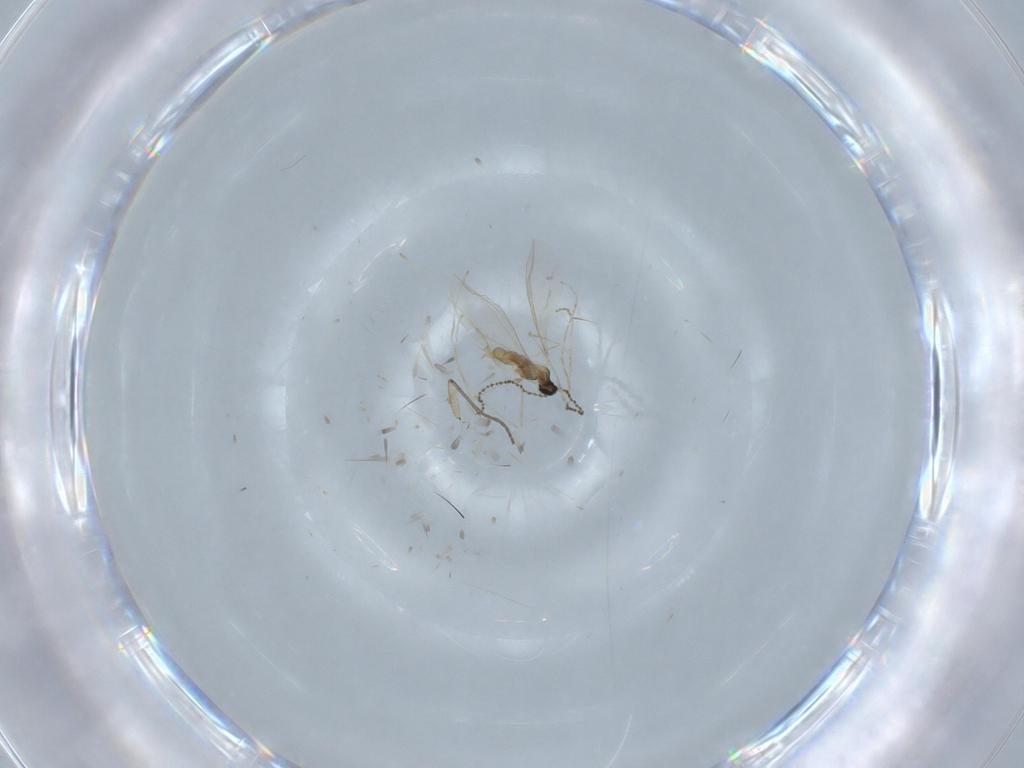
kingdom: Animalia
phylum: Arthropoda
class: Insecta
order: Diptera
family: Cecidomyiidae
